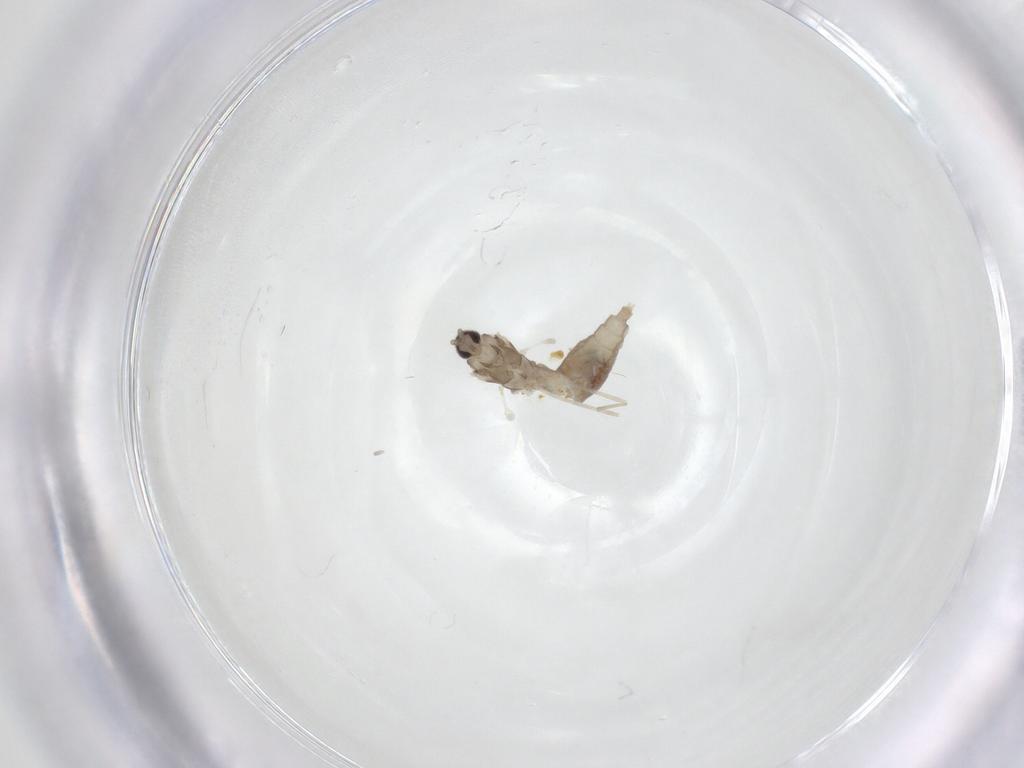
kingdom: Animalia
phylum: Arthropoda
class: Insecta
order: Diptera
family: Cecidomyiidae
